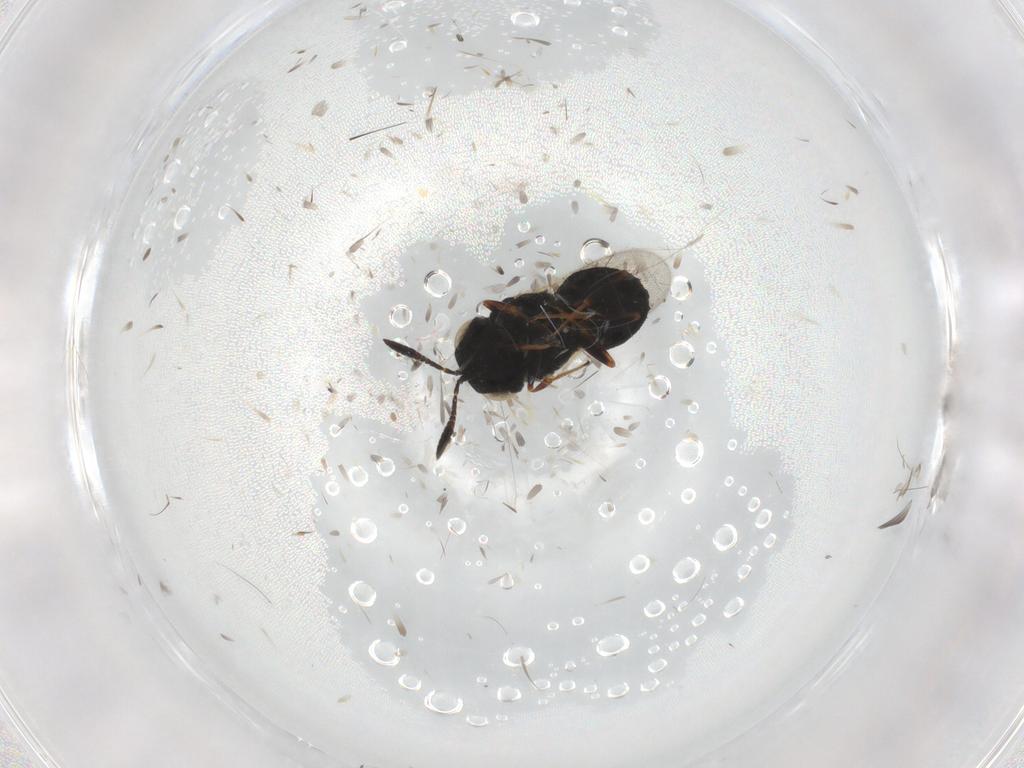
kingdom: Animalia
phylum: Arthropoda
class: Insecta
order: Hymenoptera
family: Scelionidae
